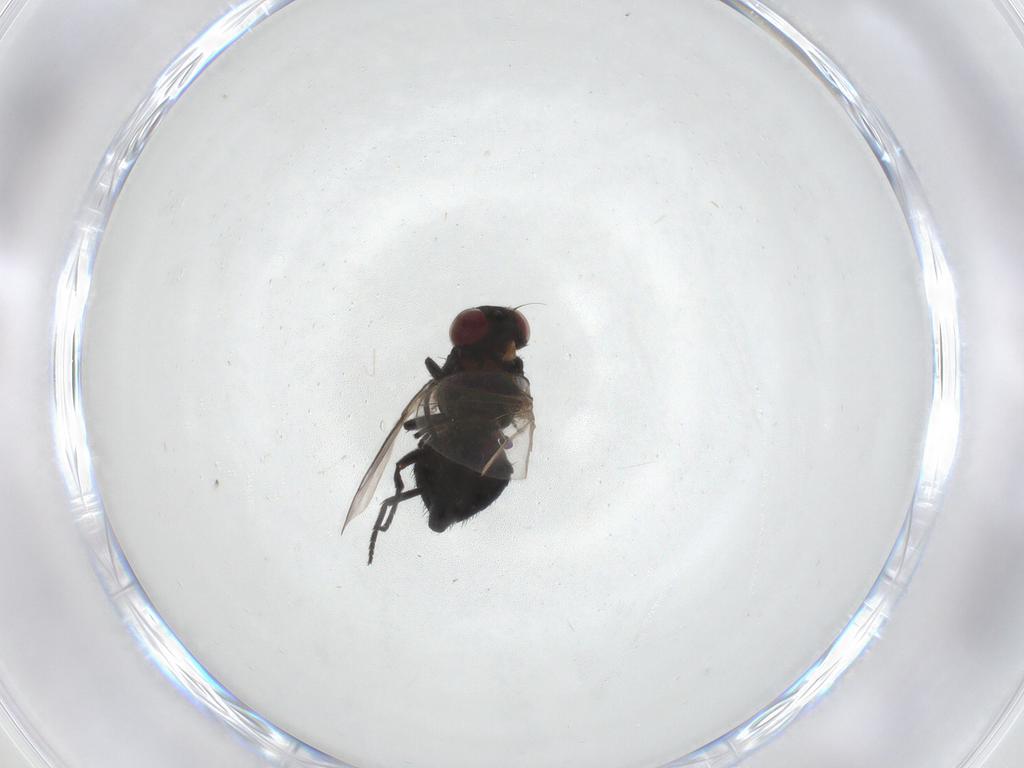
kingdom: Animalia
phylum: Arthropoda
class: Insecta
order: Diptera
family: Agromyzidae
